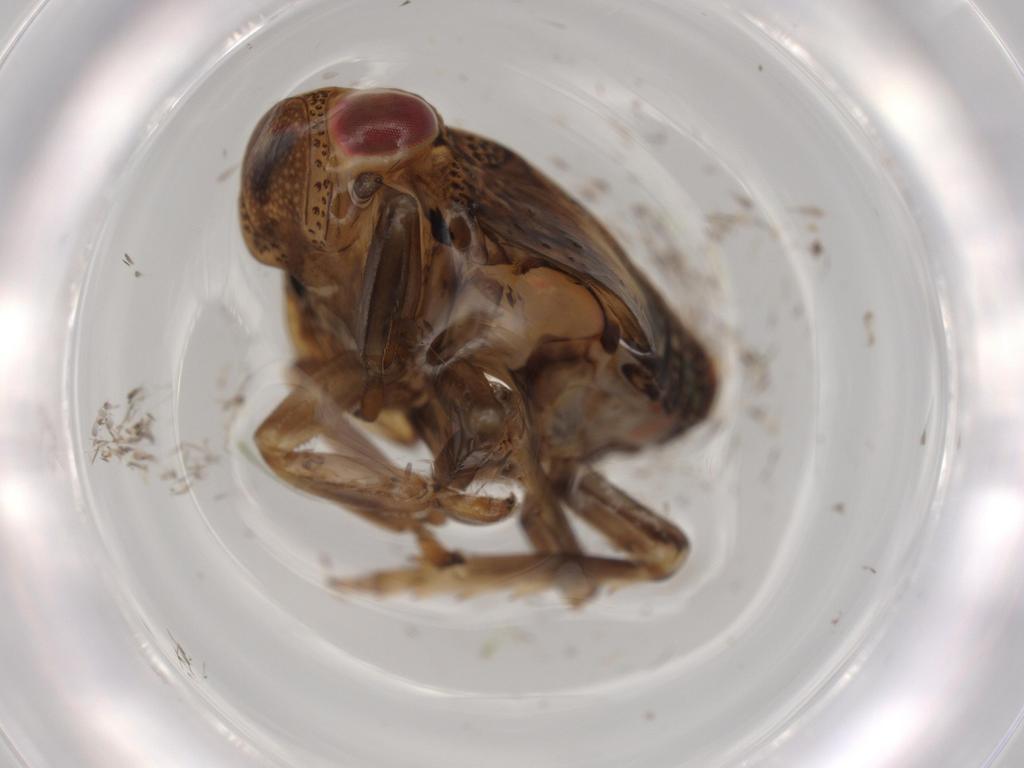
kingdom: Animalia
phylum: Arthropoda
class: Insecta
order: Hemiptera
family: Issidae
